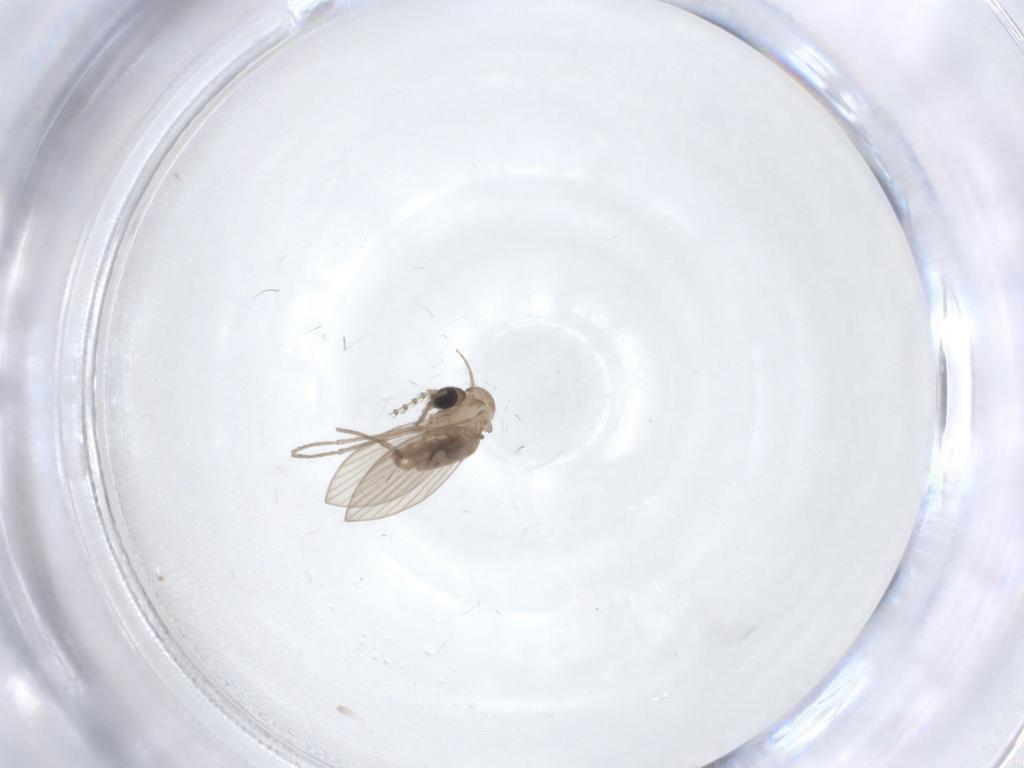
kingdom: Animalia
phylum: Arthropoda
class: Insecta
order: Diptera
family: Psychodidae
